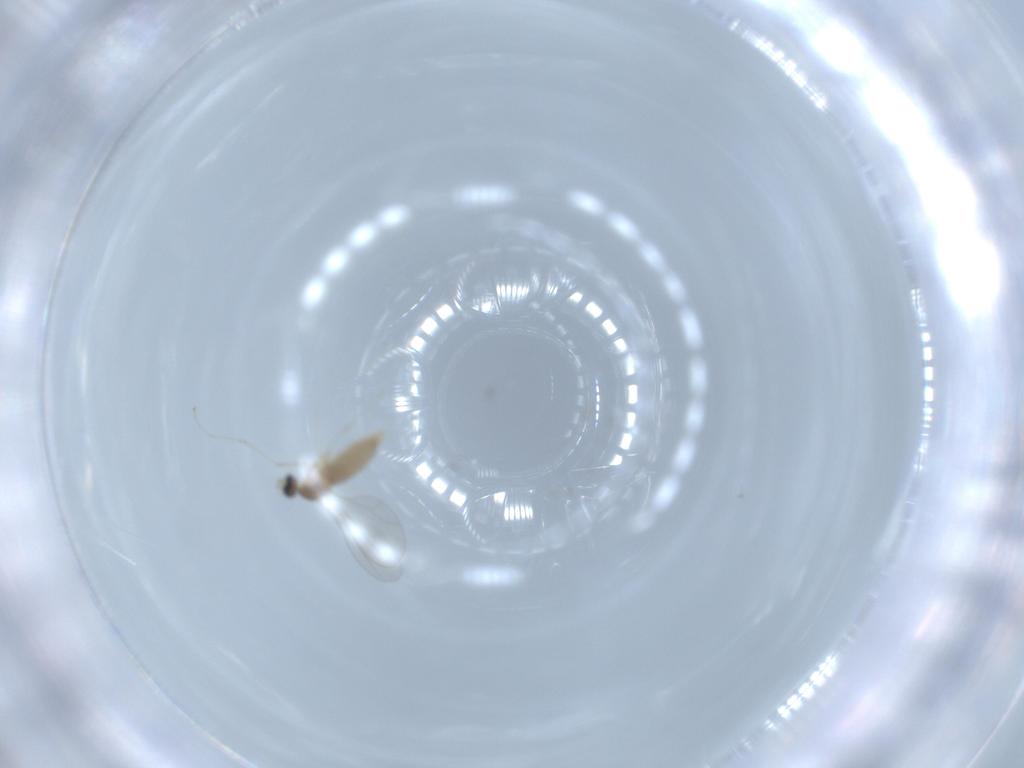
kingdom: Animalia
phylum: Arthropoda
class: Insecta
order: Diptera
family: Cecidomyiidae
